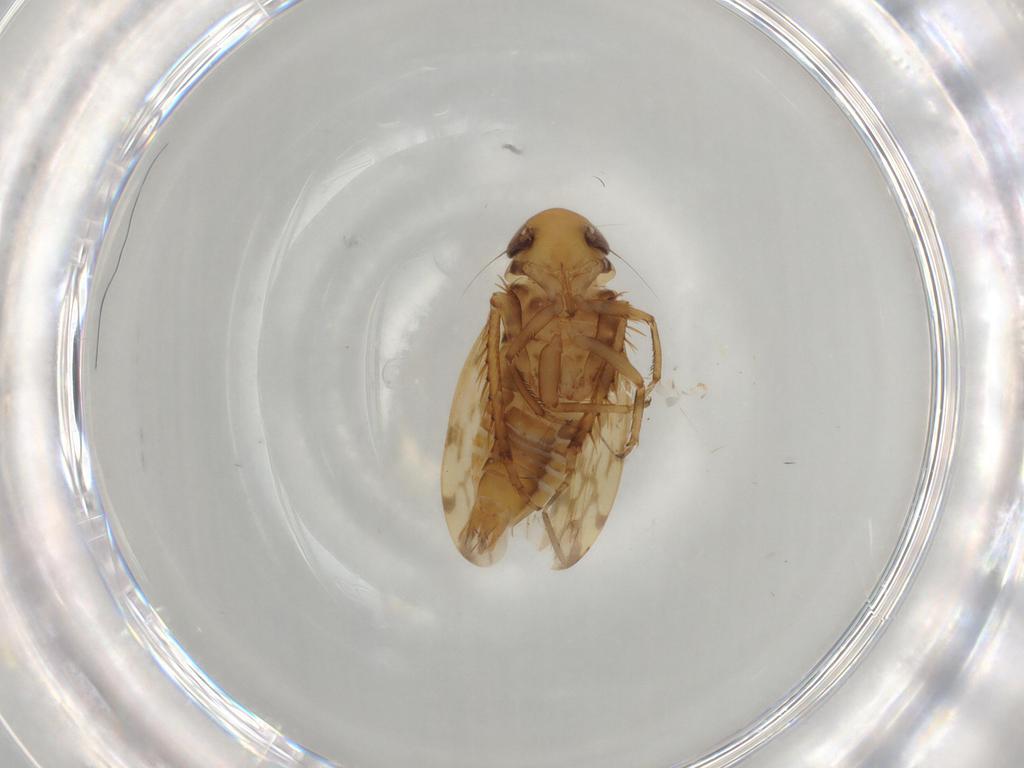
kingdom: Animalia
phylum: Arthropoda
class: Insecta
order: Hemiptera
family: Cicadellidae
